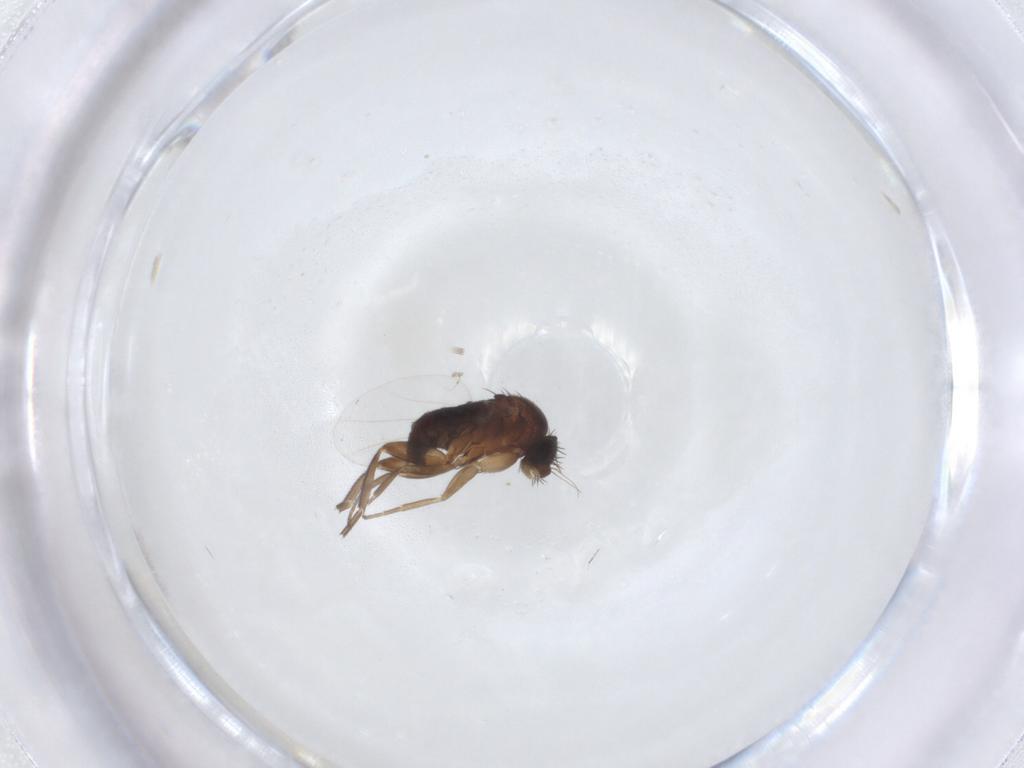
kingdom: Animalia
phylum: Arthropoda
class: Insecta
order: Diptera
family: Phoridae
